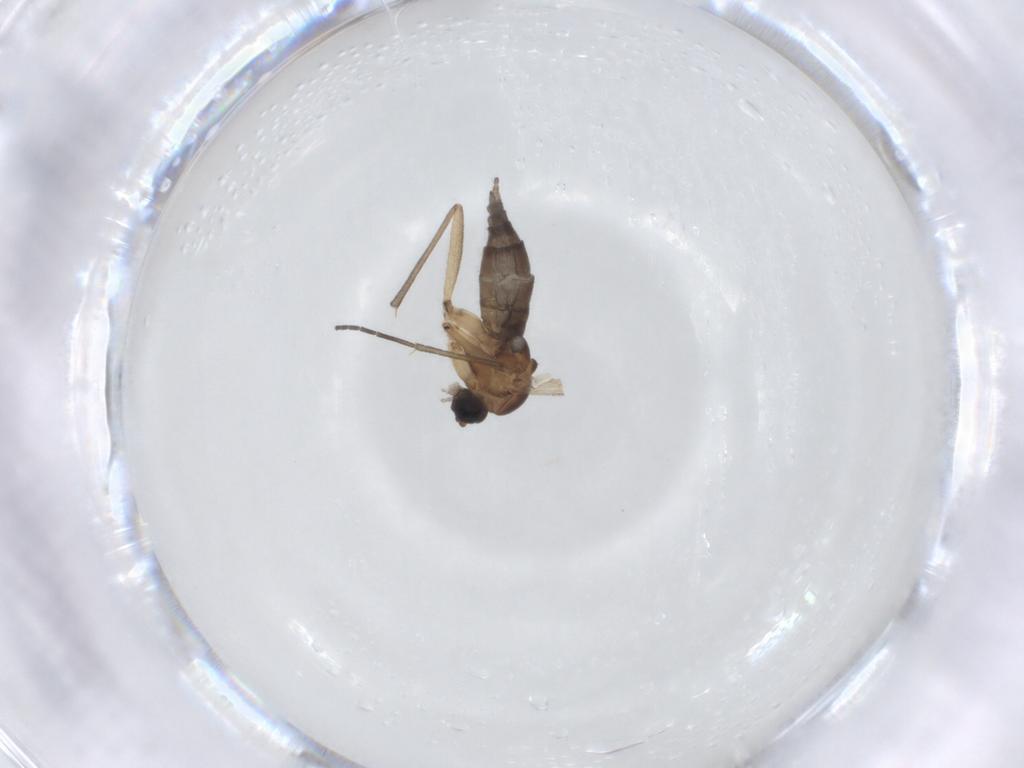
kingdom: Animalia
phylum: Arthropoda
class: Insecta
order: Diptera
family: Sciaridae
